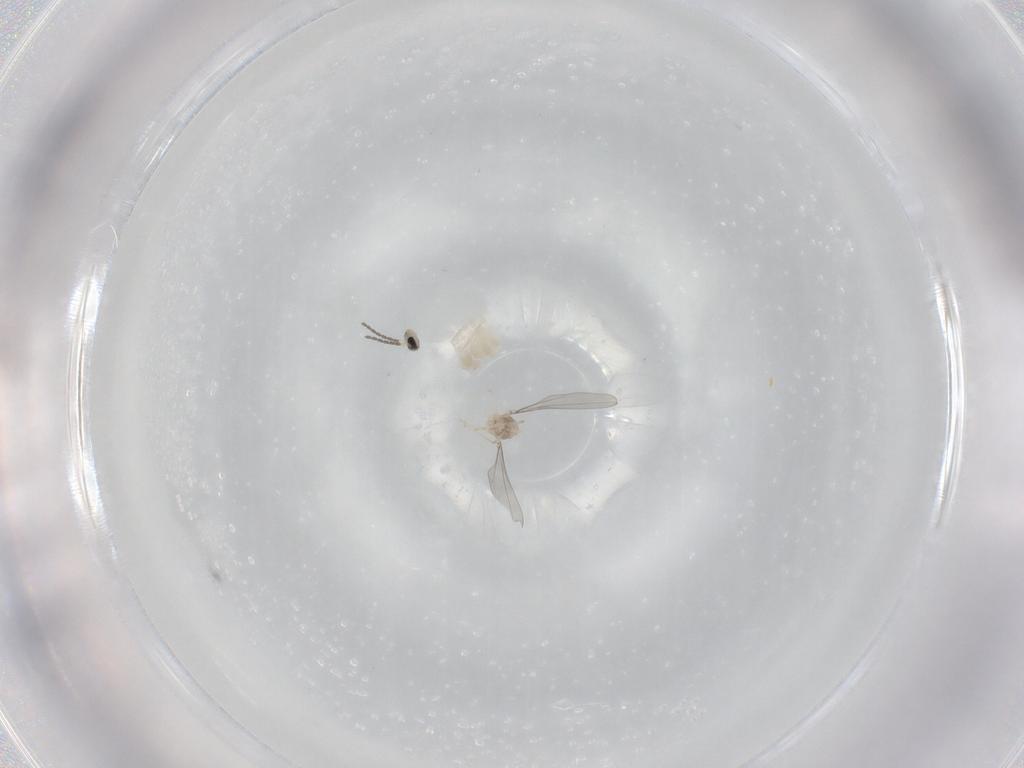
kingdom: Animalia
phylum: Arthropoda
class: Insecta
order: Diptera
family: Cecidomyiidae
